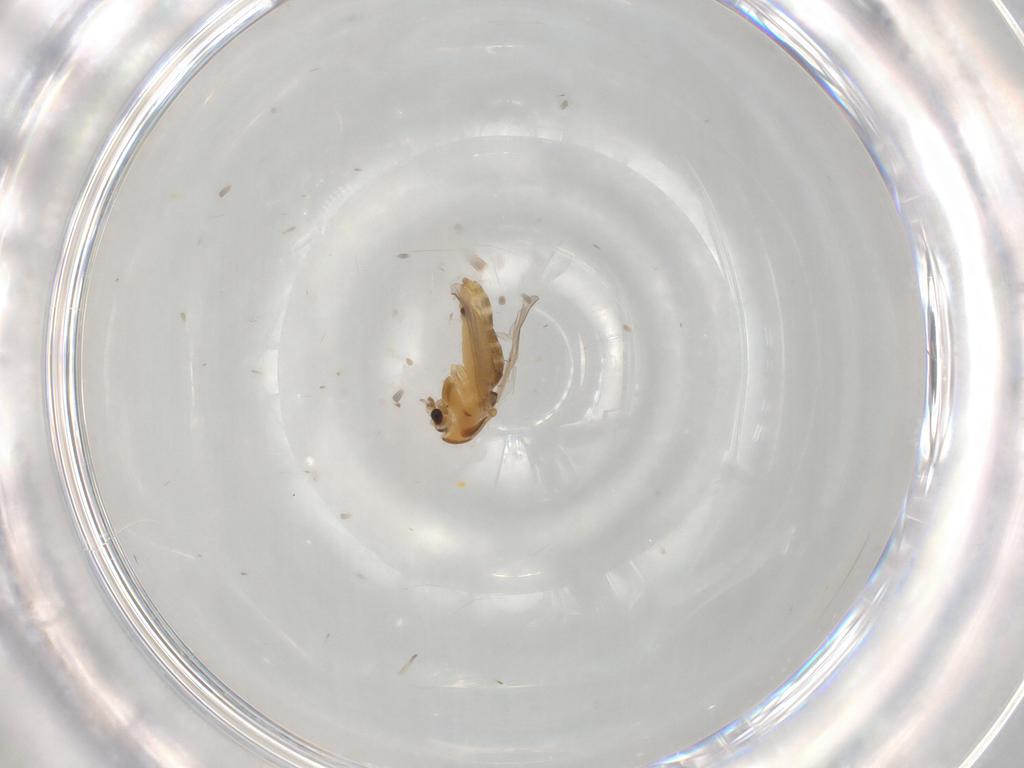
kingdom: Animalia
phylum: Arthropoda
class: Insecta
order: Diptera
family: Chironomidae
